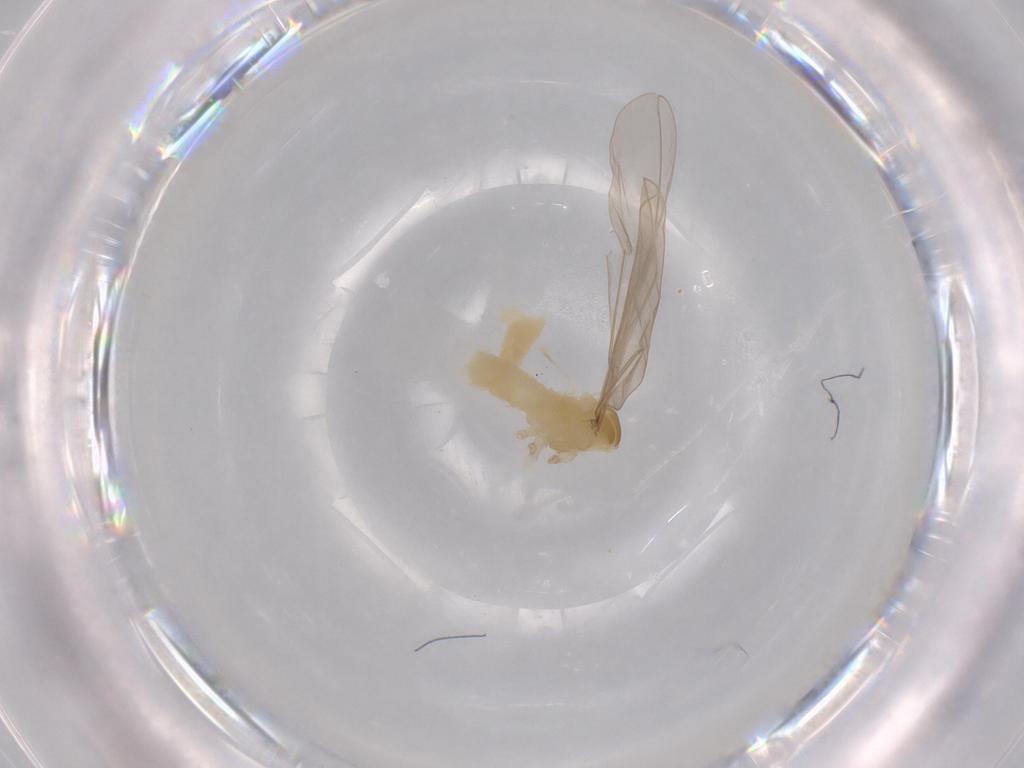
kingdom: Animalia
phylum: Arthropoda
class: Insecta
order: Diptera
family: Cecidomyiidae
